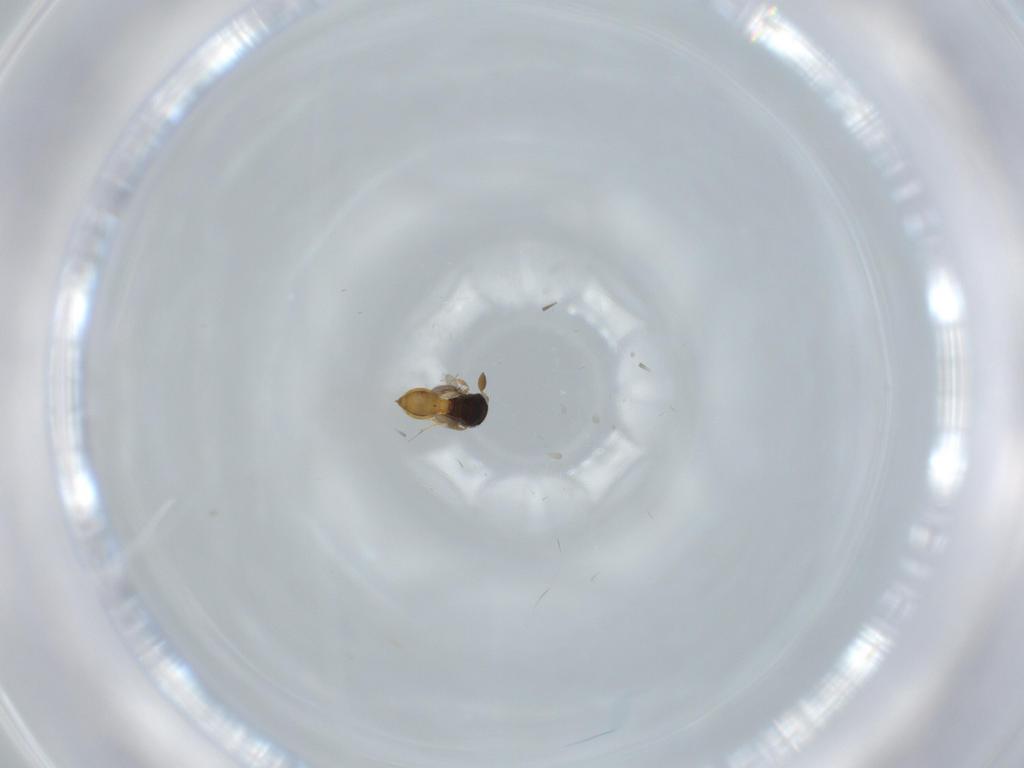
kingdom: Animalia
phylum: Arthropoda
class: Insecta
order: Hymenoptera
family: Scelionidae
